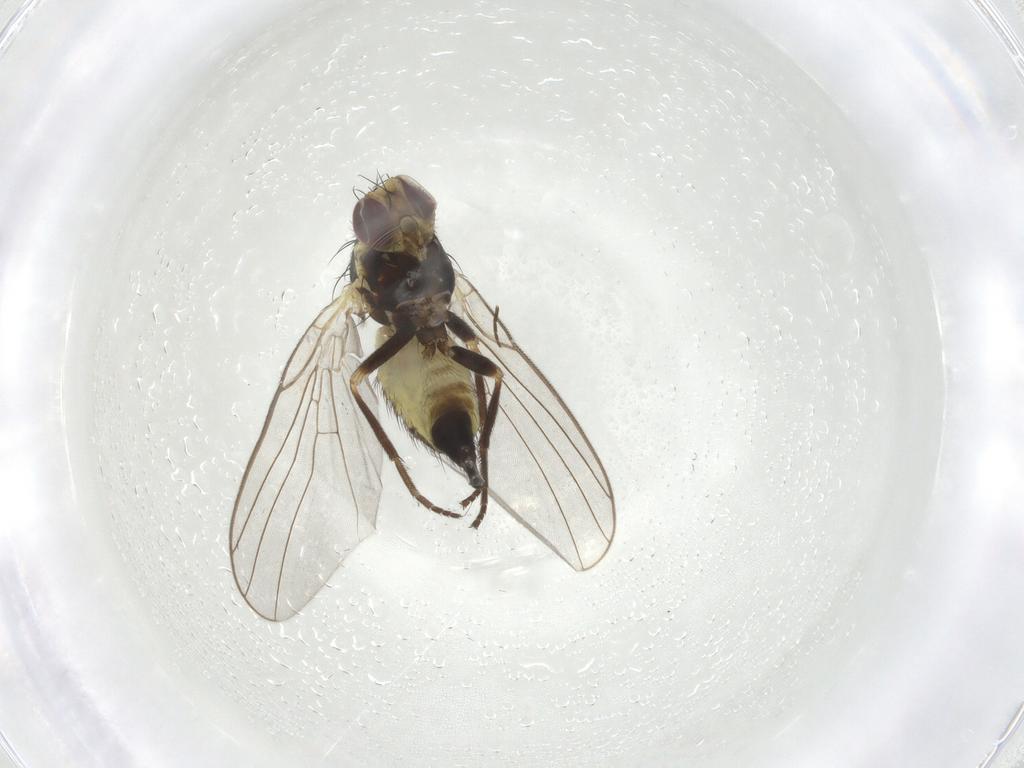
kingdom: Animalia
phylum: Arthropoda
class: Insecta
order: Diptera
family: Agromyzidae
